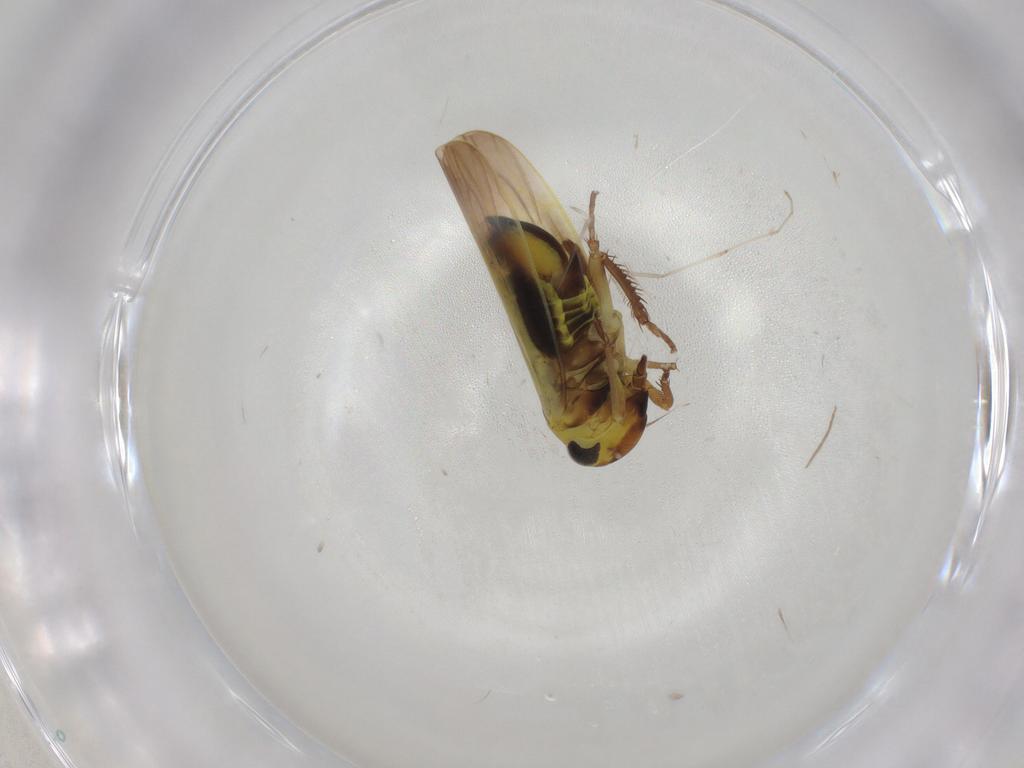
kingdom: Animalia
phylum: Arthropoda
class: Insecta
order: Hemiptera
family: Cicadellidae
